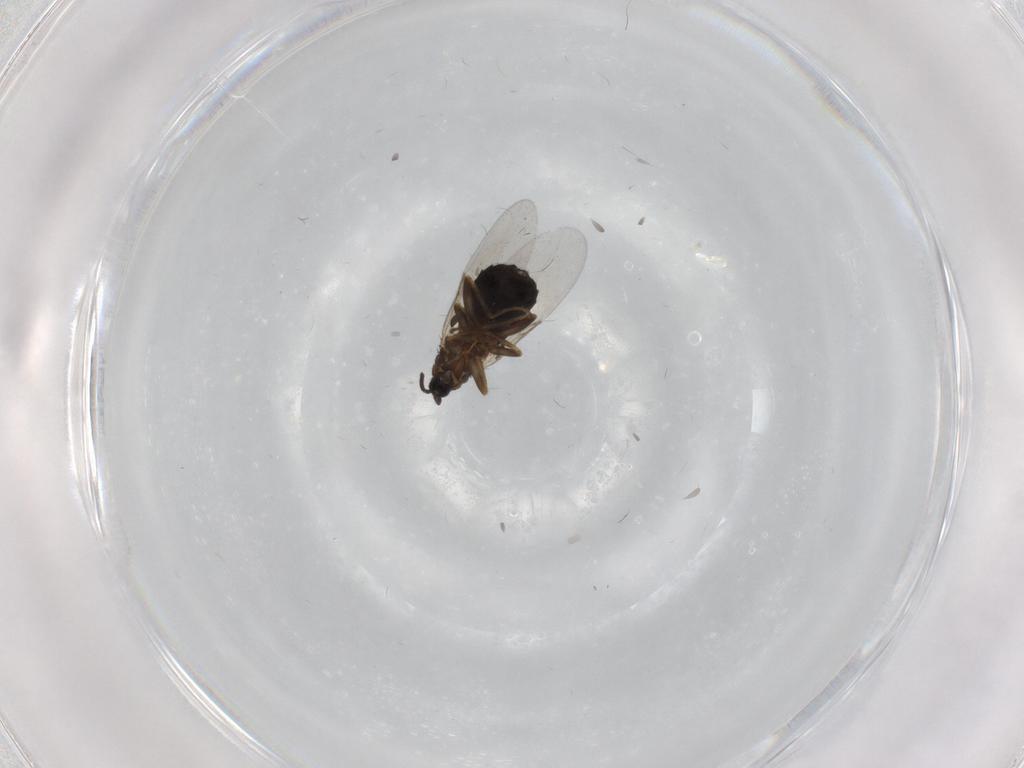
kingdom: Animalia
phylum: Arthropoda
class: Insecta
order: Diptera
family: Scatopsidae
